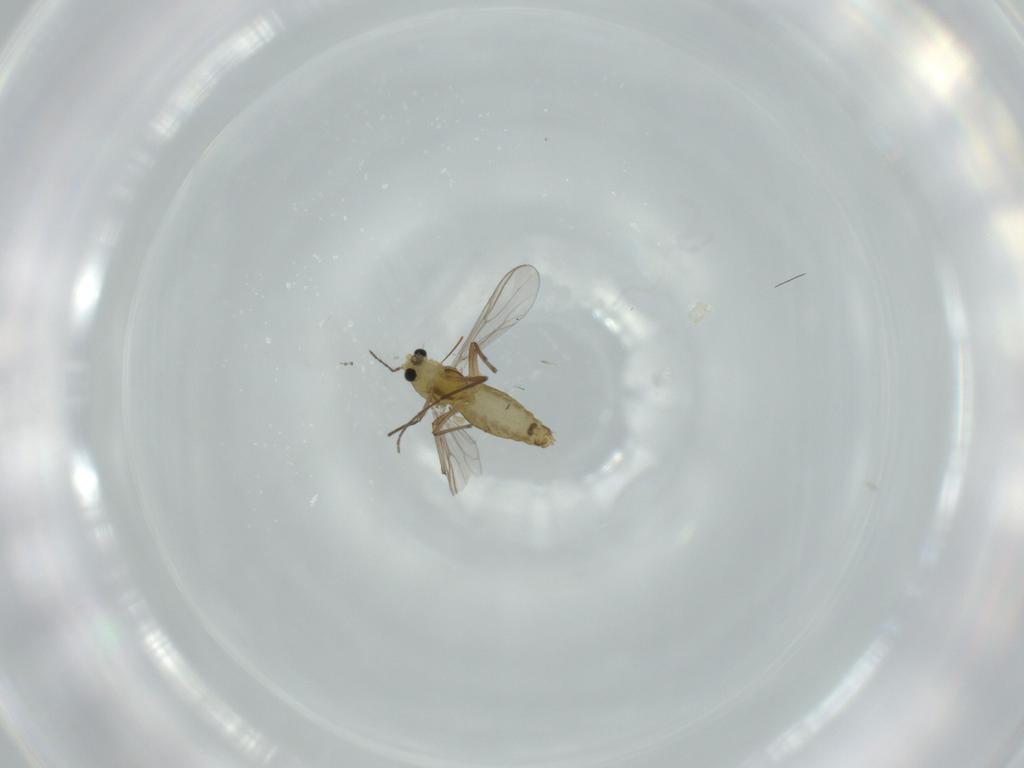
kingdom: Animalia
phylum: Arthropoda
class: Insecta
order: Diptera
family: Chironomidae
